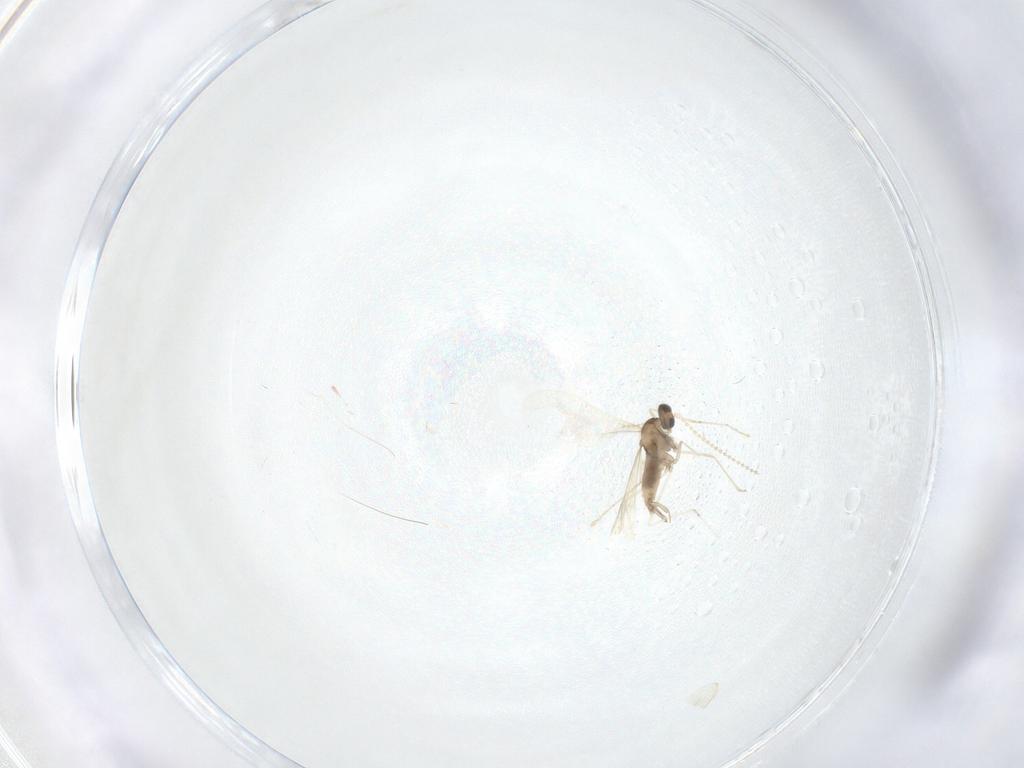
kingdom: Animalia
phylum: Arthropoda
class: Insecta
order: Diptera
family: Cecidomyiidae
